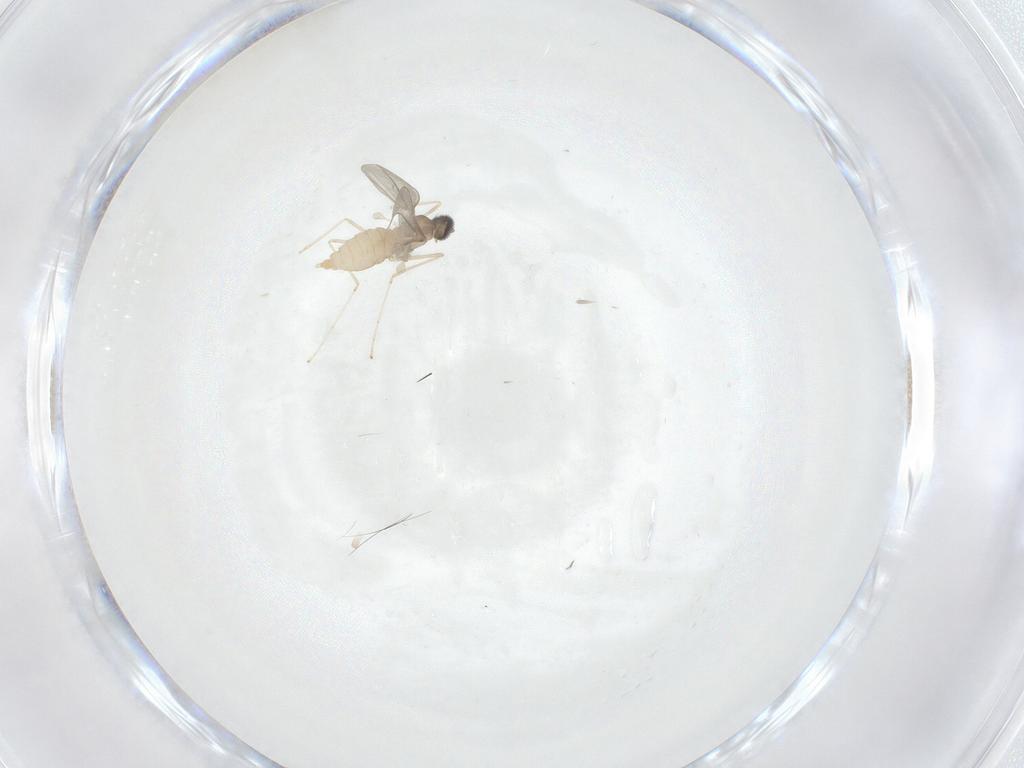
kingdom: Animalia
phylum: Arthropoda
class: Insecta
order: Diptera
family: Cecidomyiidae
